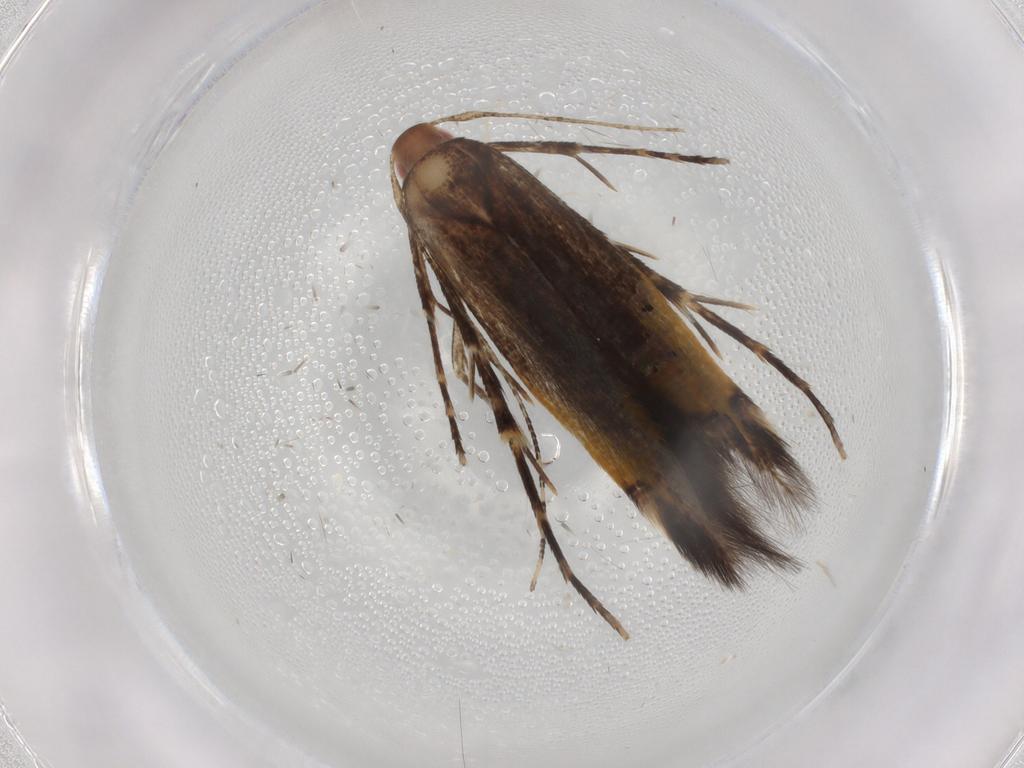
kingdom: Animalia
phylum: Arthropoda
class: Insecta
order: Lepidoptera
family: Cosmopterigidae
